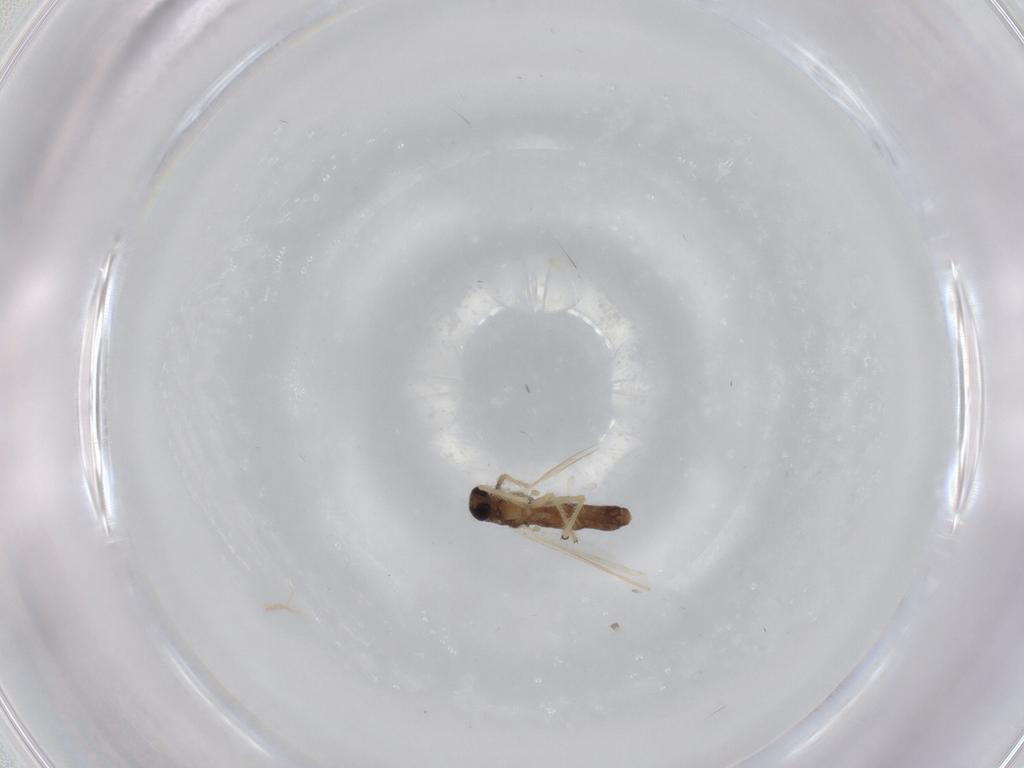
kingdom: Animalia
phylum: Arthropoda
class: Insecta
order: Diptera
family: Chironomidae
